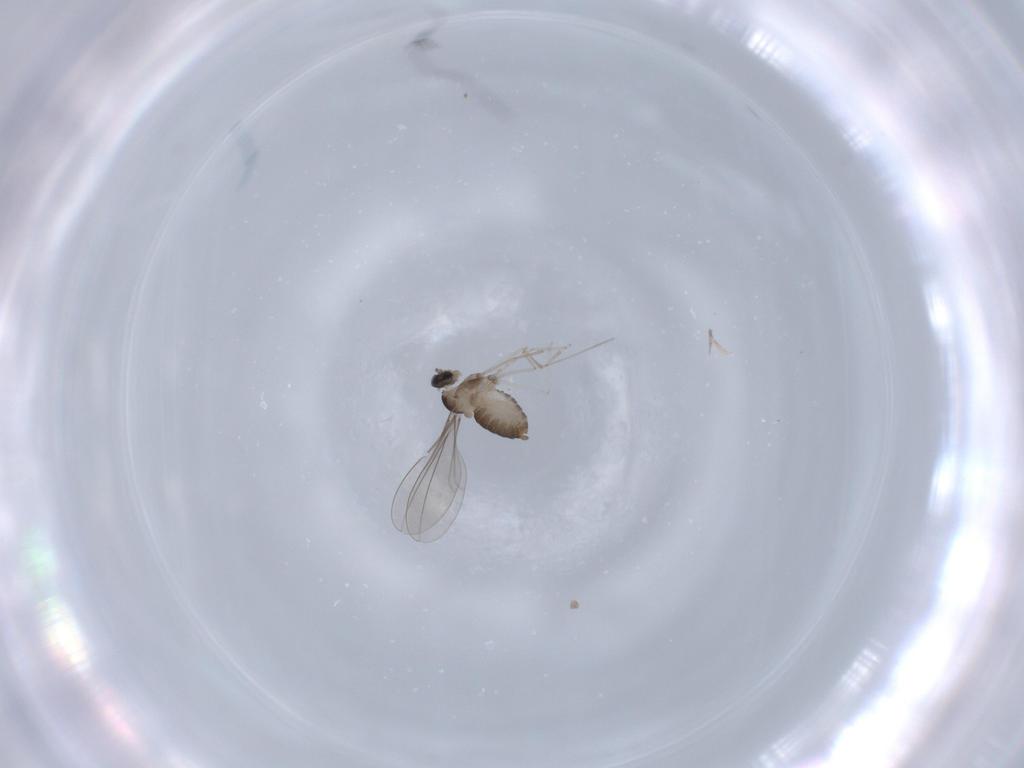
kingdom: Animalia
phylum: Arthropoda
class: Insecta
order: Diptera
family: Cecidomyiidae
